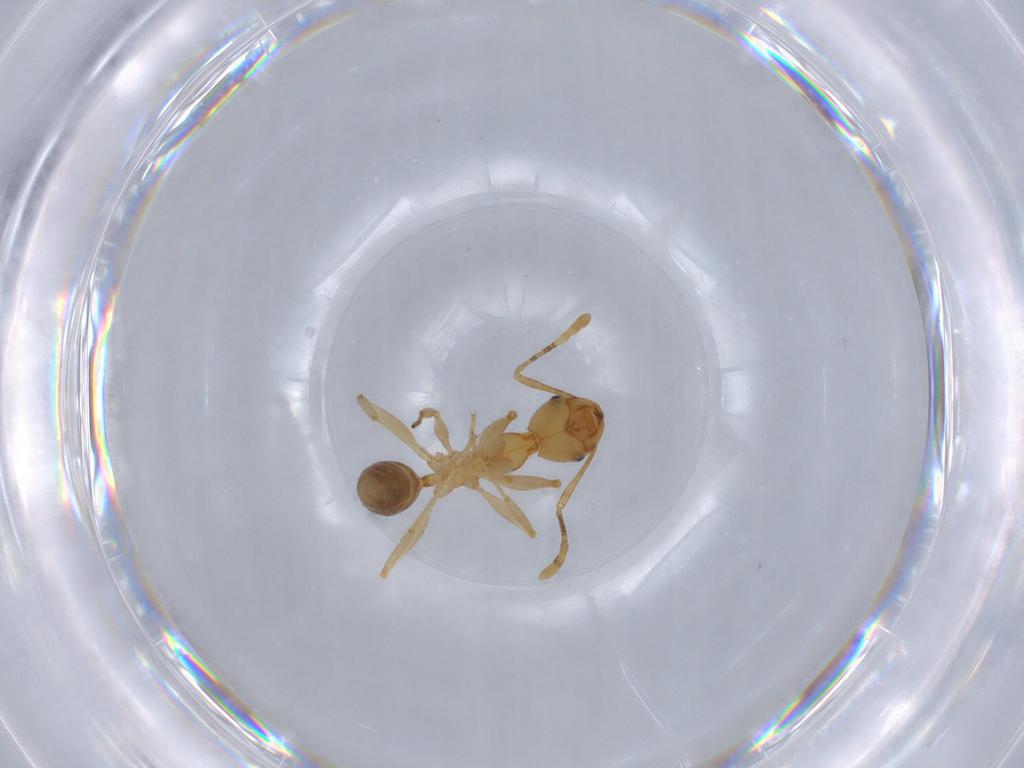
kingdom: Animalia
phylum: Arthropoda
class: Insecta
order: Hymenoptera
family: Formicidae
